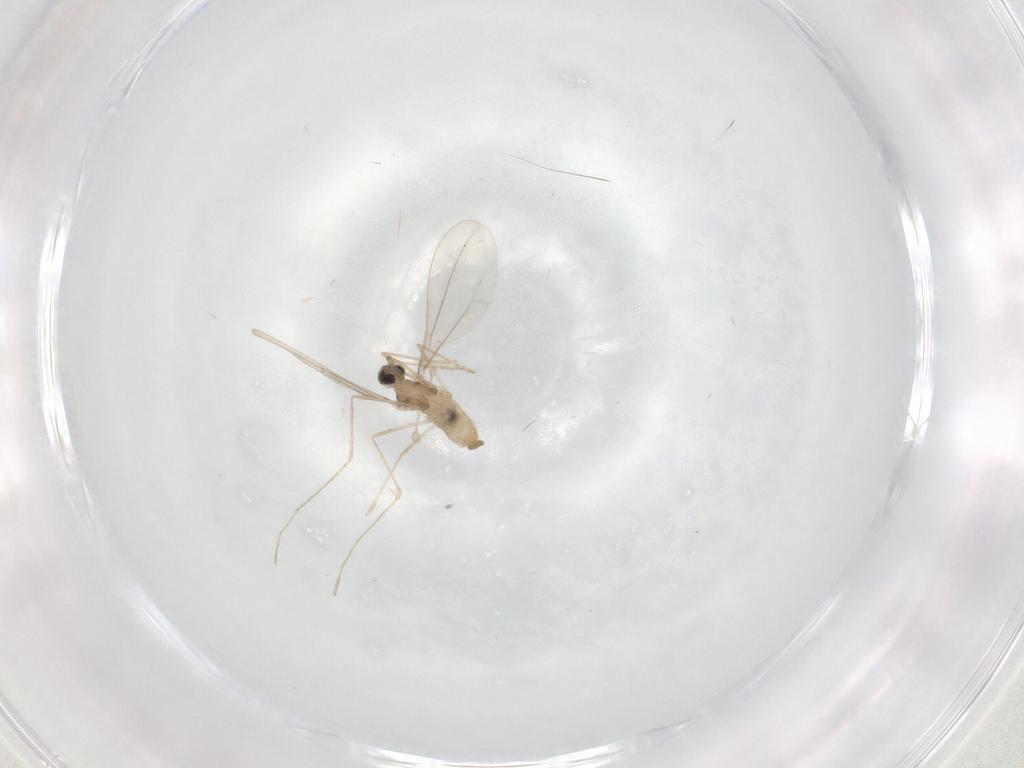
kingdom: Animalia
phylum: Arthropoda
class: Insecta
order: Diptera
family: Cecidomyiidae
